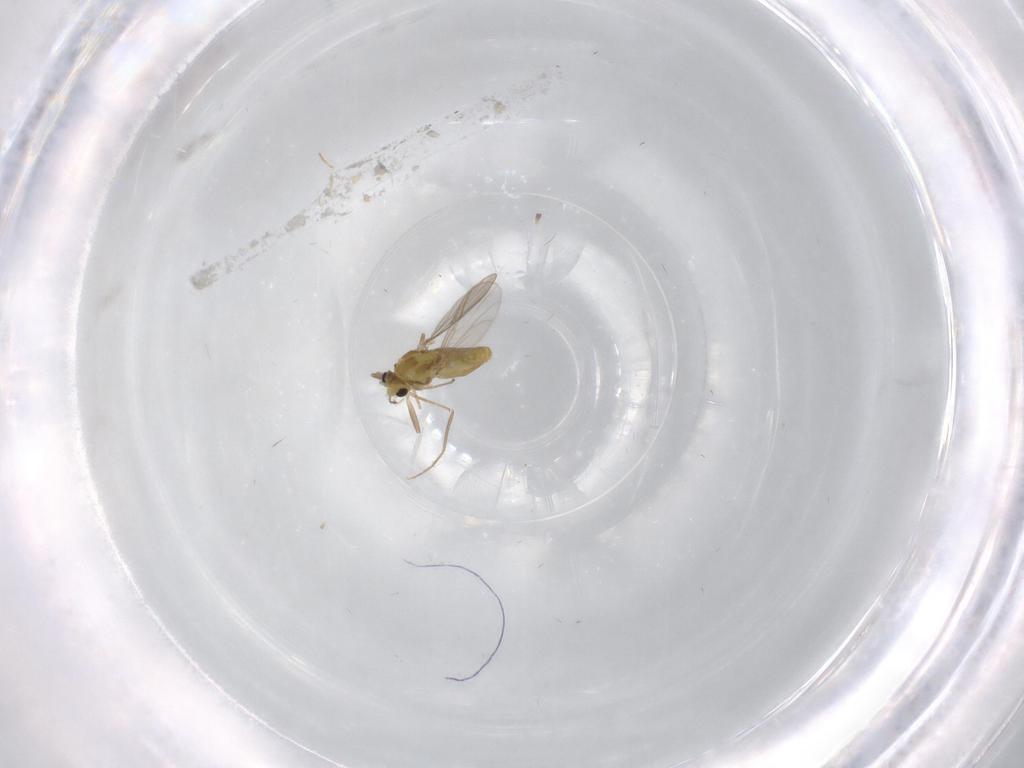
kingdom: Animalia
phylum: Arthropoda
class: Insecta
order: Diptera
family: Chironomidae
